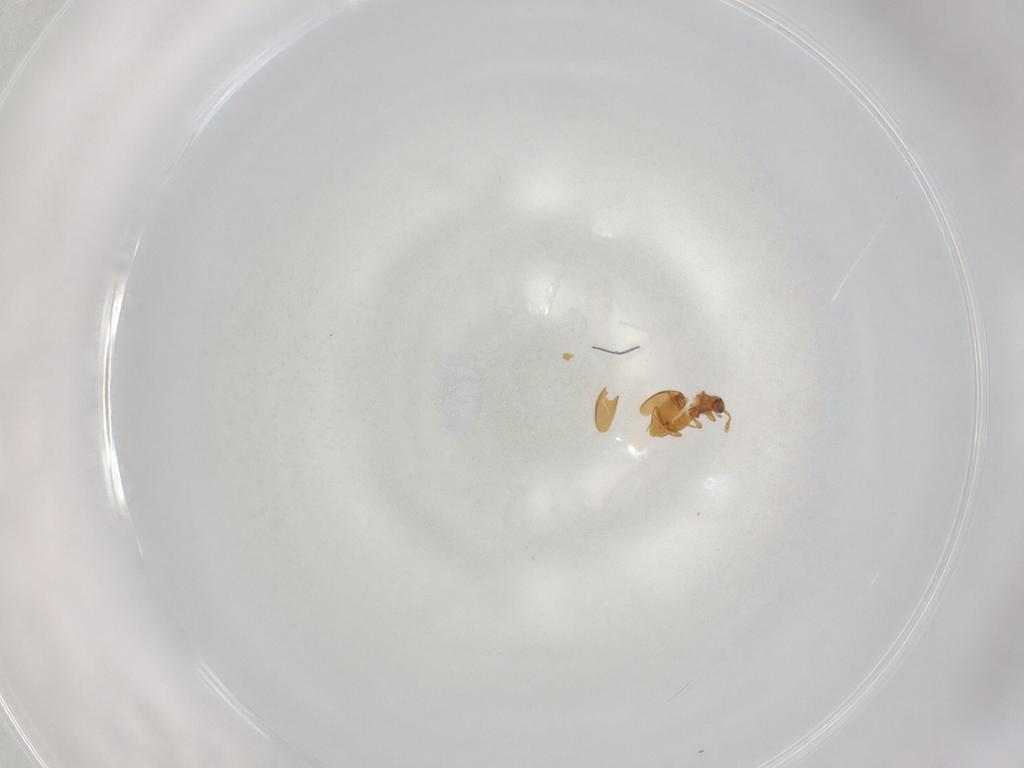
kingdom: Animalia
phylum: Arthropoda
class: Insecta
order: Coleoptera
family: Staphylinidae
